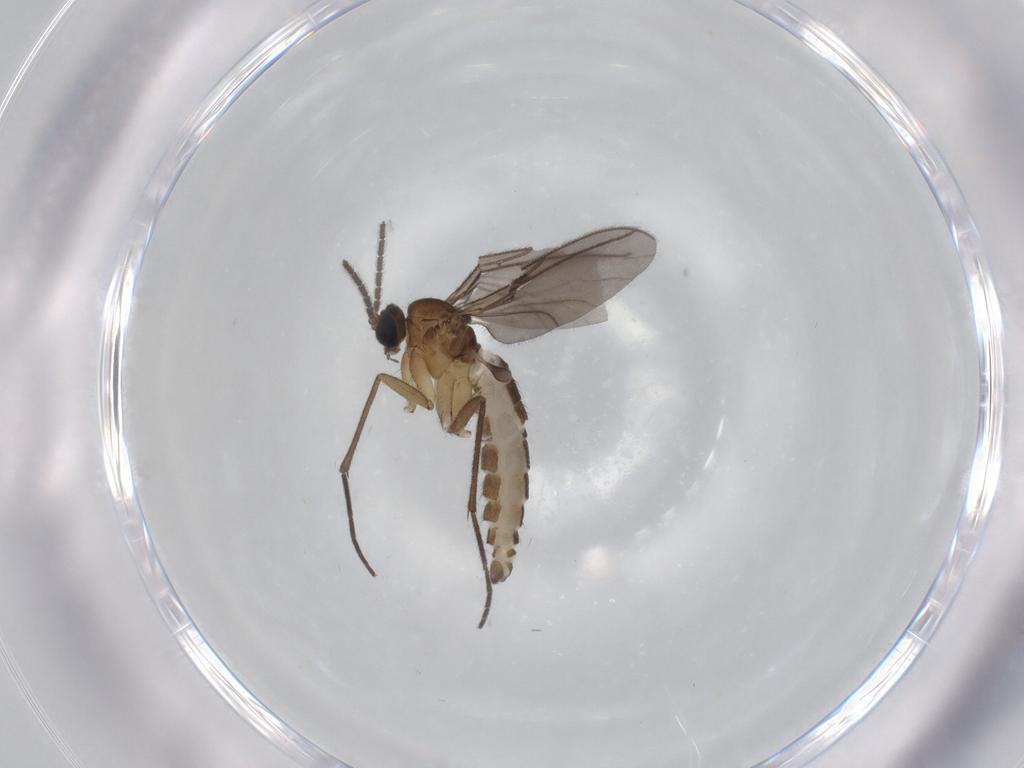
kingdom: Animalia
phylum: Arthropoda
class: Insecta
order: Diptera
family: Sciaridae
